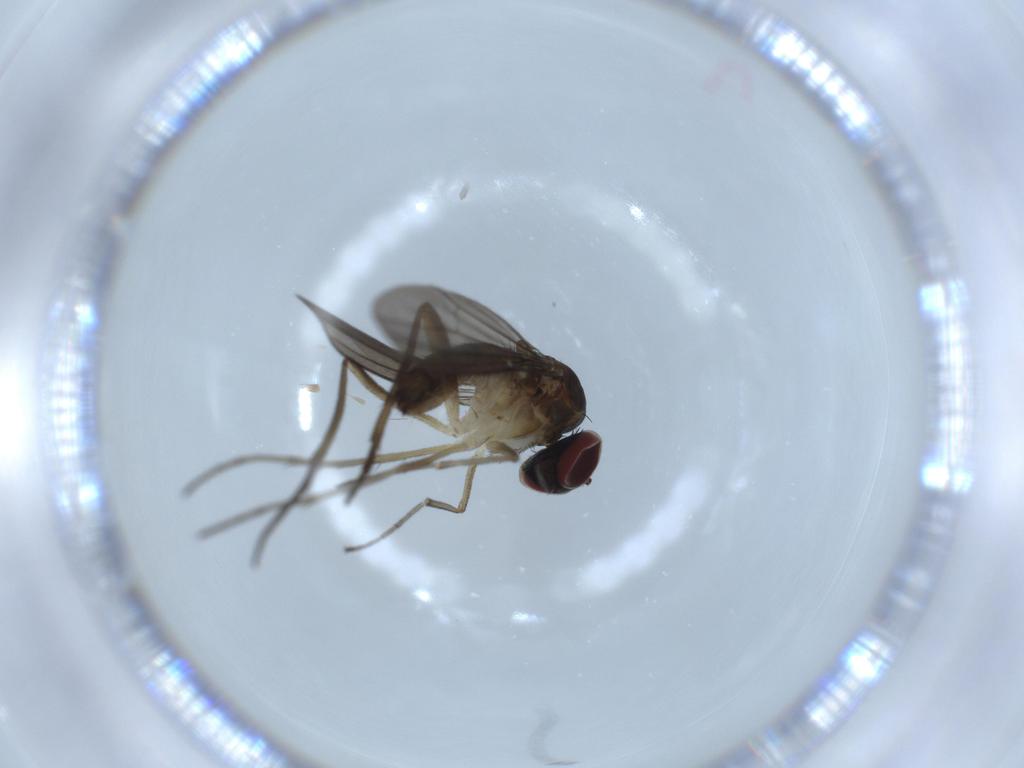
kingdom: Animalia
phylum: Arthropoda
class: Insecta
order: Diptera
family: Dolichopodidae
